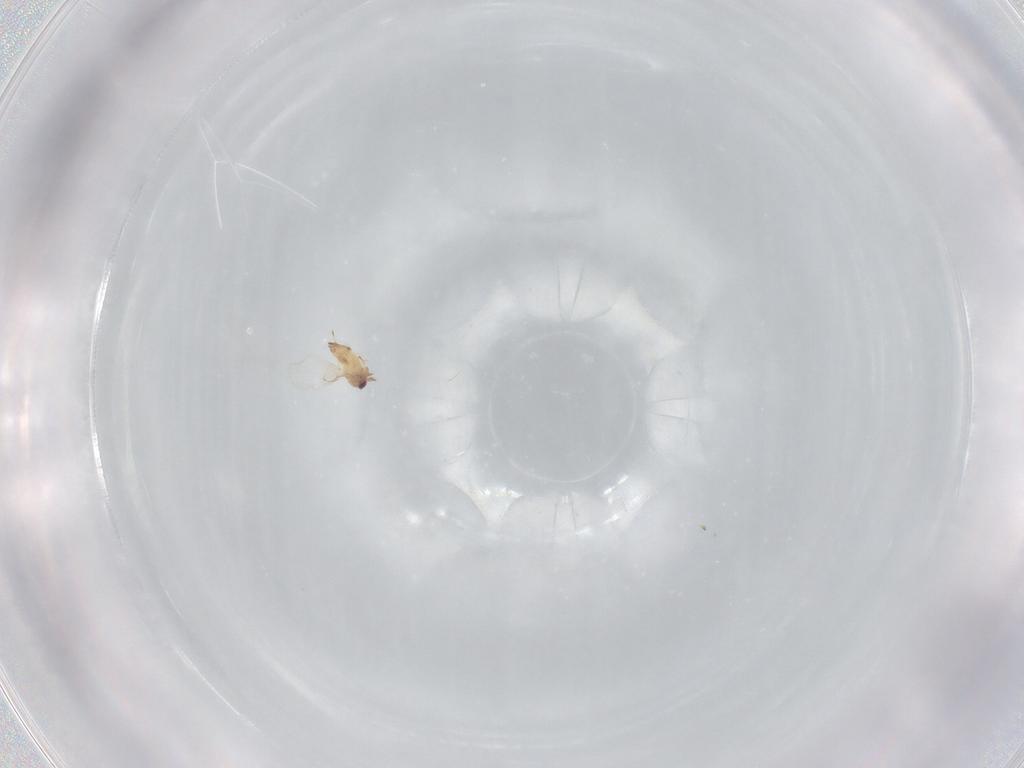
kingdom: Animalia
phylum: Arthropoda
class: Insecta
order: Hymenoptera
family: Trichogrammatidae
